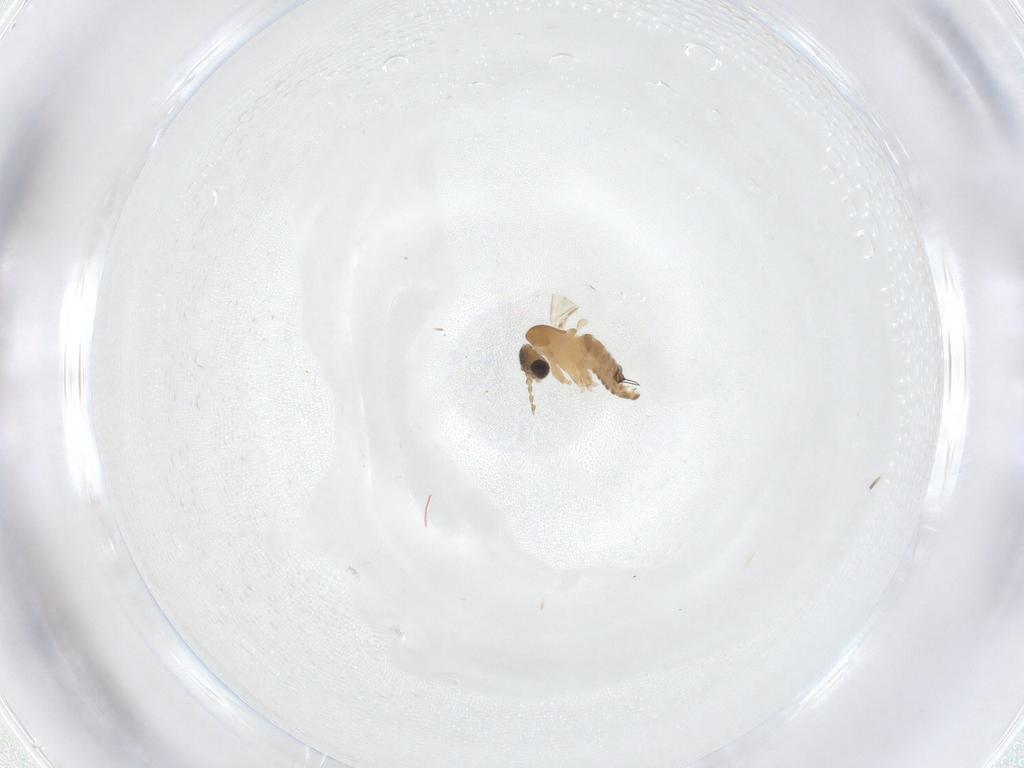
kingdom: Animalia
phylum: Arthropoda
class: Insecta
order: Diptera
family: Psychodidae
